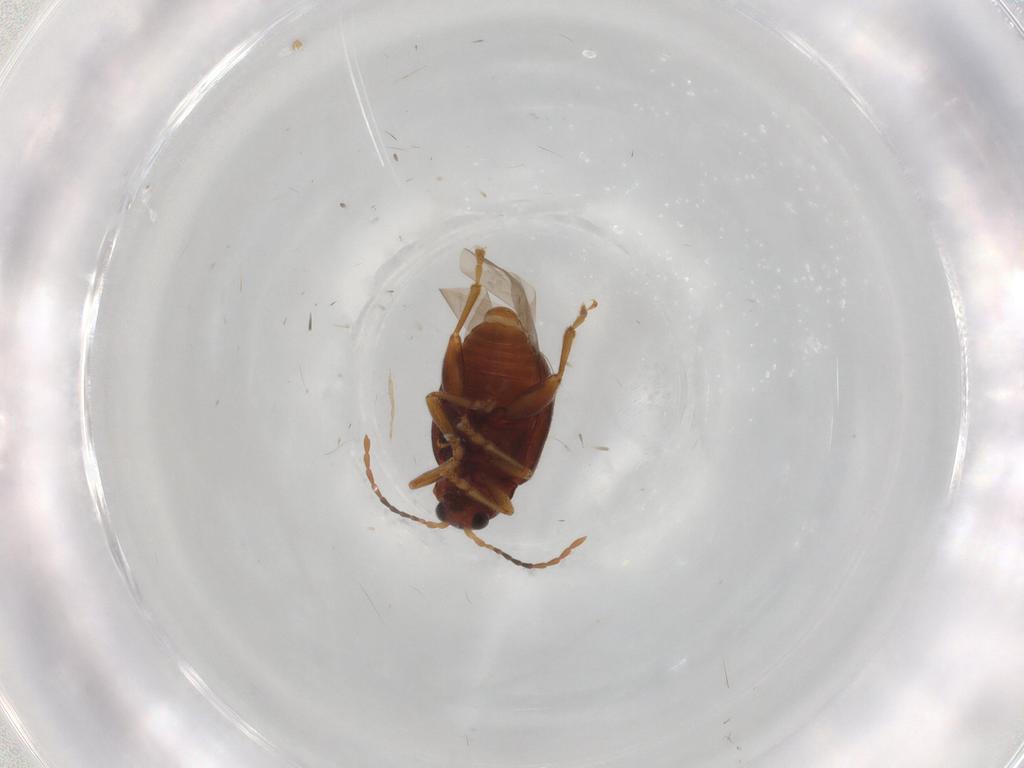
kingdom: Animalia
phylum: Arthropoda
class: Insecta
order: Coleoptera
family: Chrysomelidae
